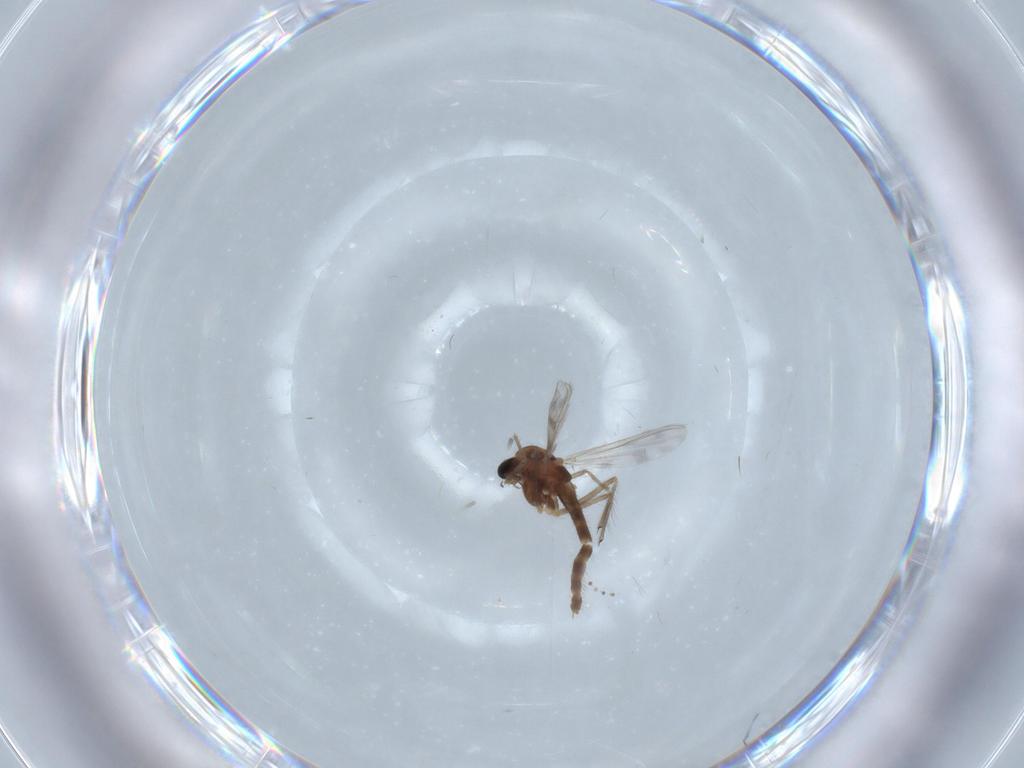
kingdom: Animalia
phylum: Arthropoda
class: Insecta
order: Diptera
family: Chironomidae
